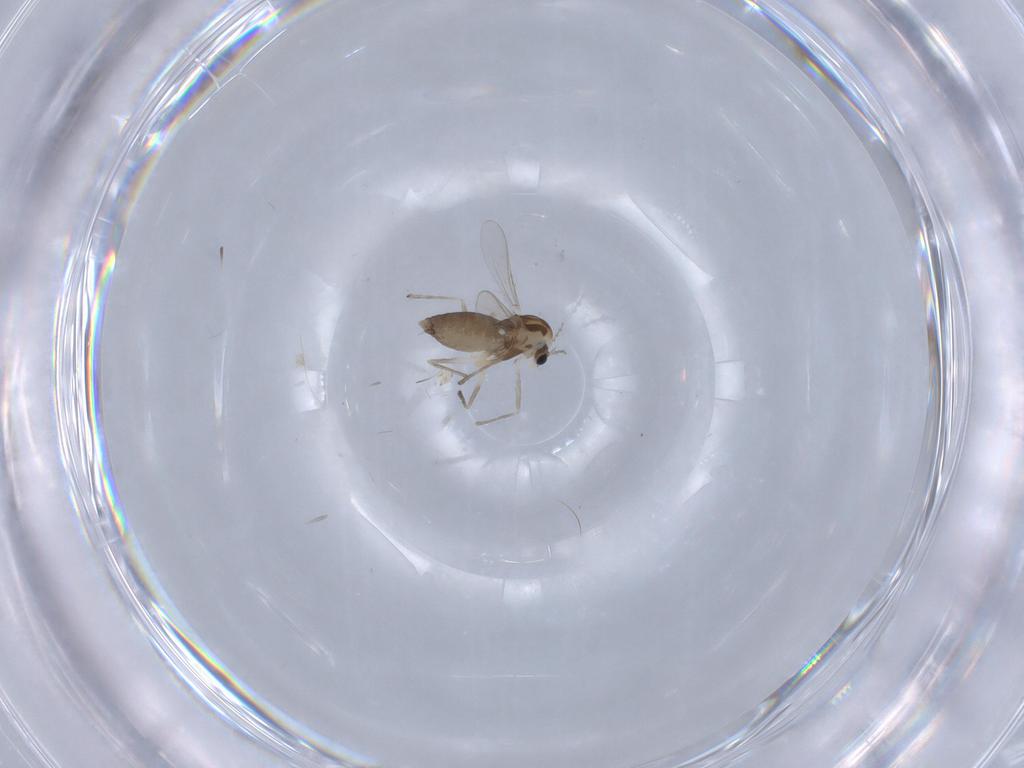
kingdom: Animalia
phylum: Arthropoda
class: Insecta
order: Diptera
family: Chironomidae
